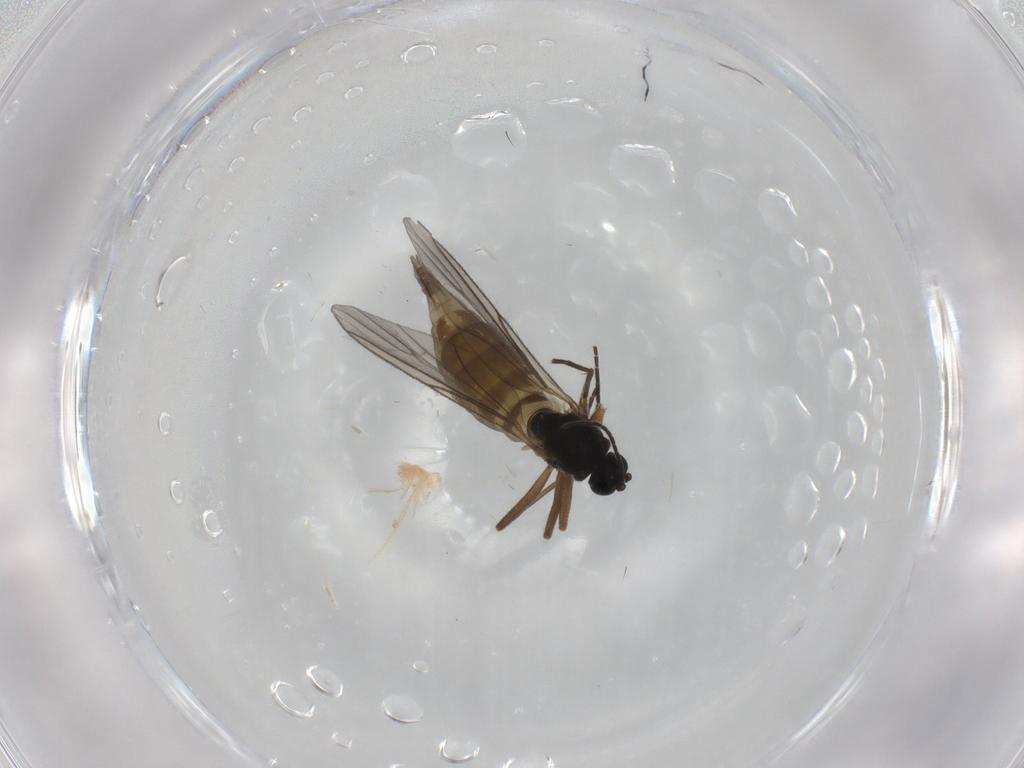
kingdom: Animalia
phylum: Arthropoda
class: Insecta
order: Diptera
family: Sciaridae
